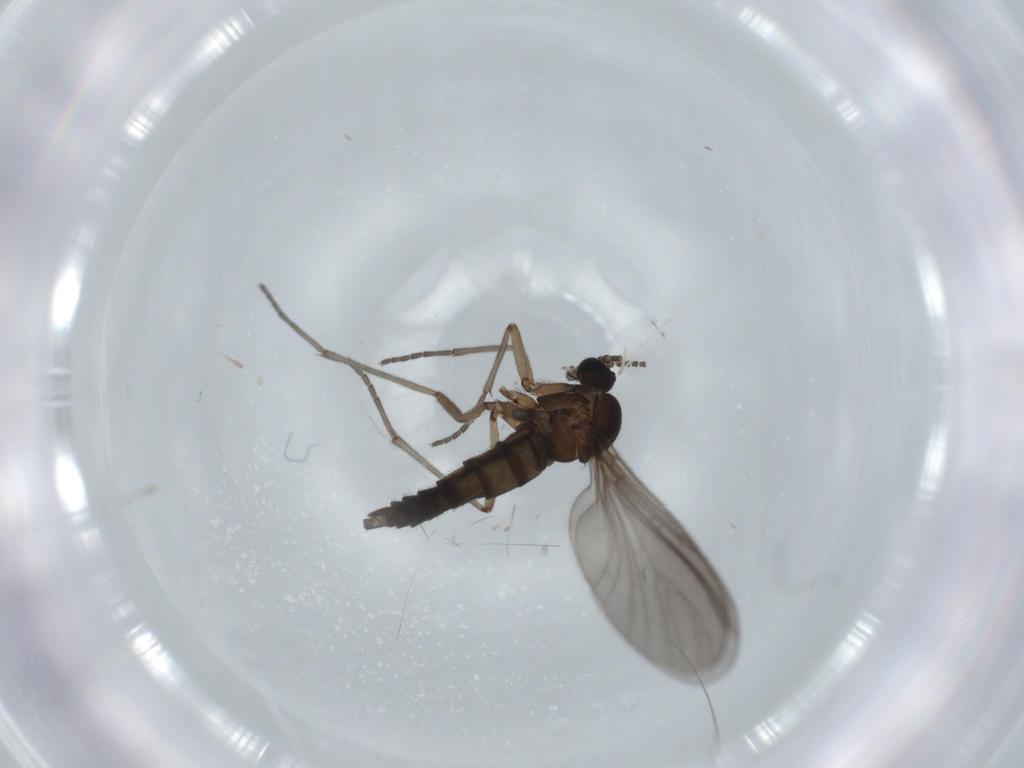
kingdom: Animalia
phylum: Arthropoda
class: Insecta
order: Diptera
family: Sciaridae
